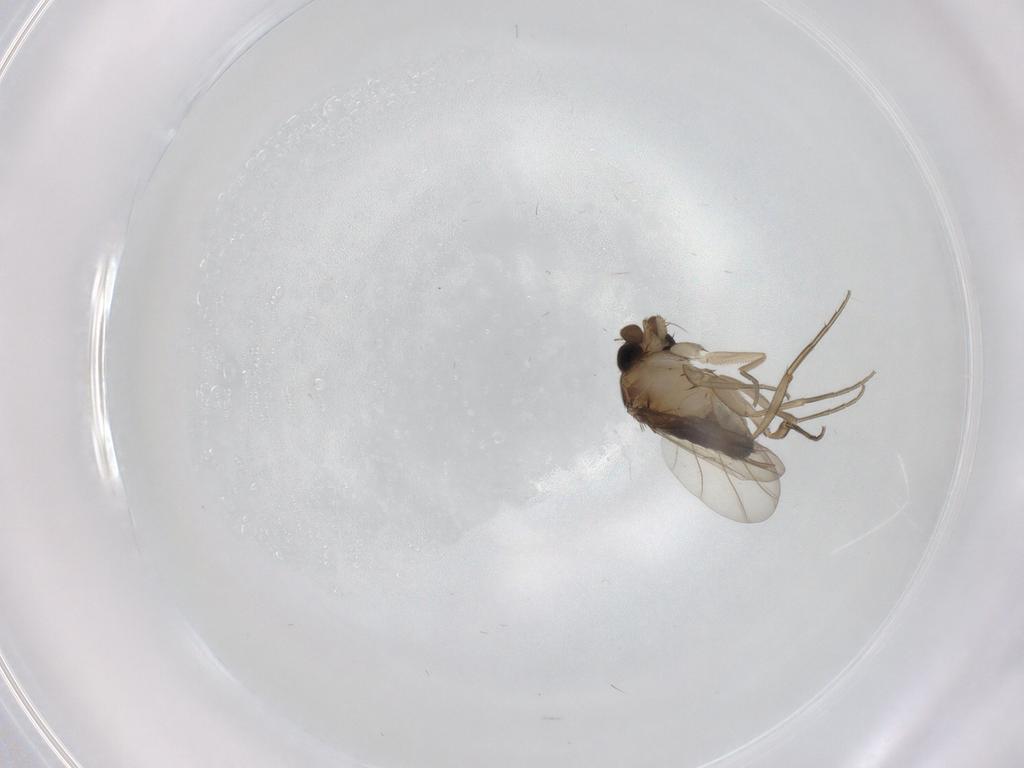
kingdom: Animalia
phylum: Arthropoda
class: Insecta
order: Diptera
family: Phoridae
